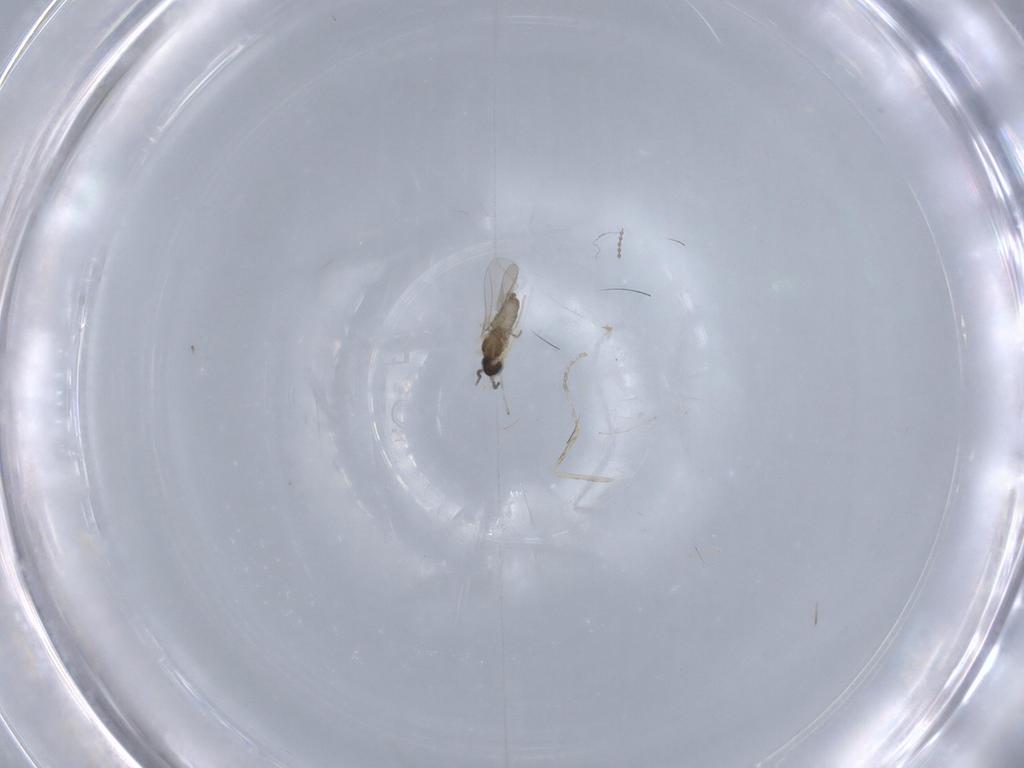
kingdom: Animalia
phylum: Arthropoda
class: Insecta
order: Diptera
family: Cecidomyiidae
